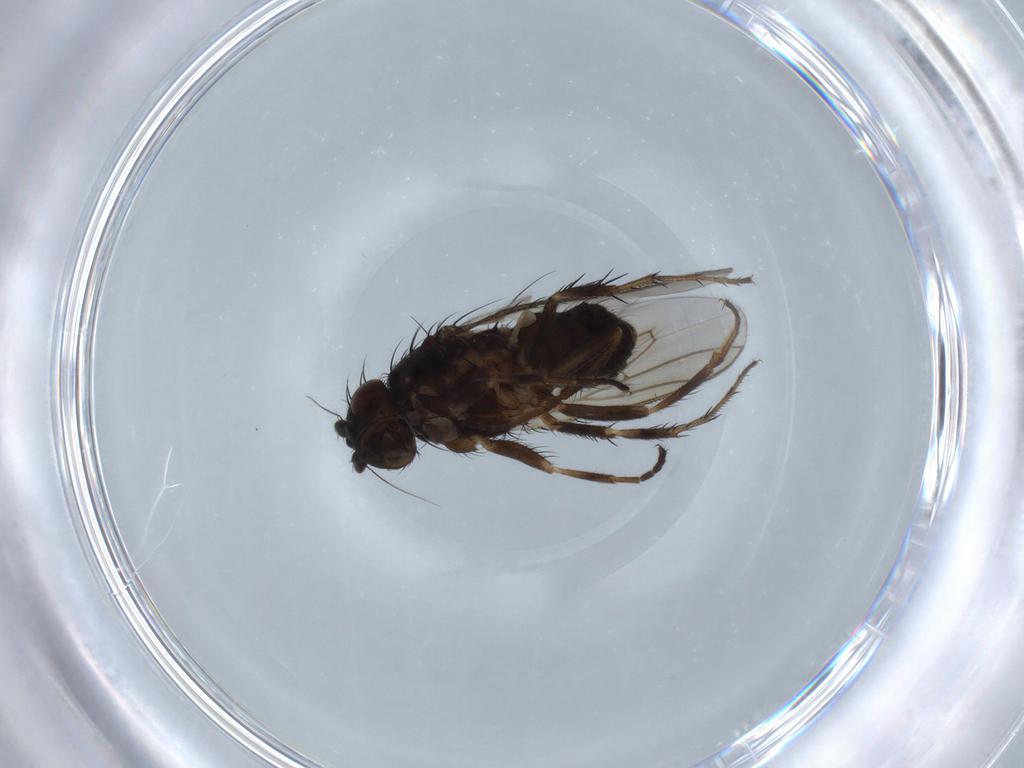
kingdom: Animalia
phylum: Arthropoda
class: Insecta
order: Diptera
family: Sphaeroceridae
